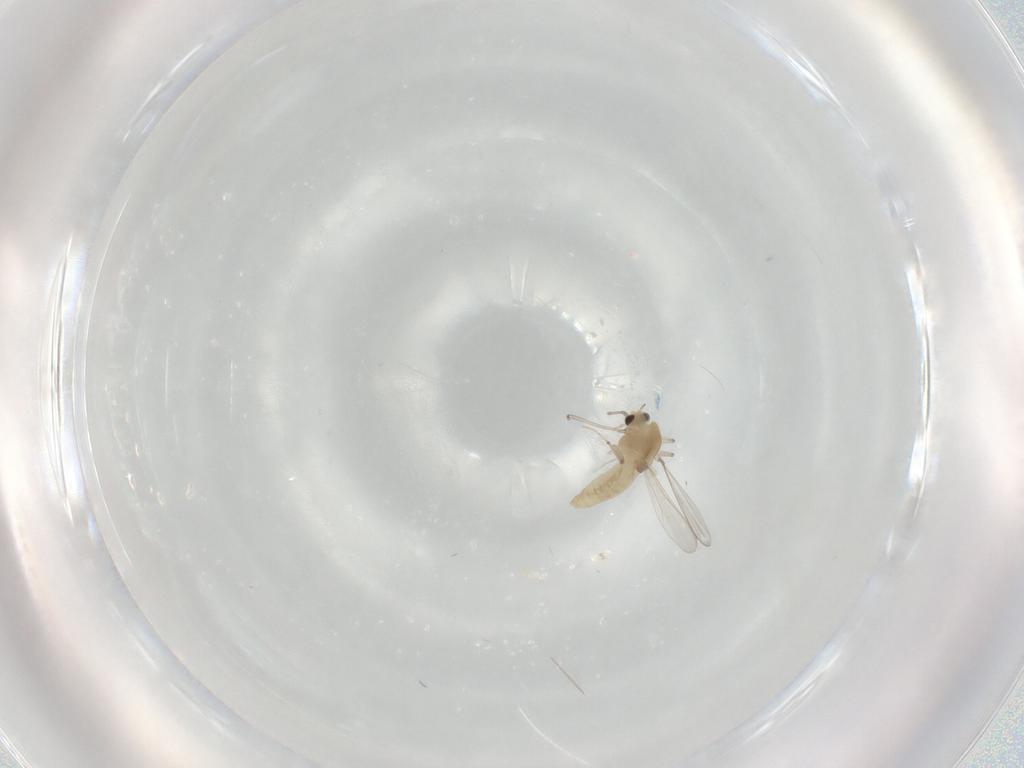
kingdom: Animalia
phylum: Arthropoda
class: Insecta
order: Diptera
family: Chironomidae
